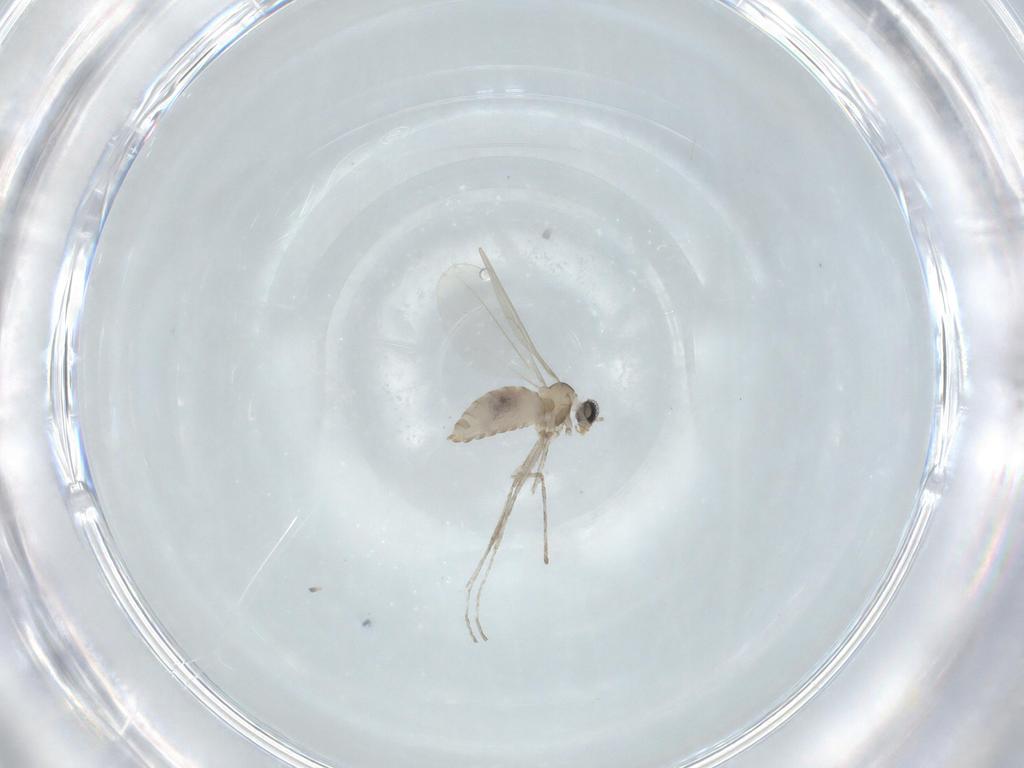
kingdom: Animalia
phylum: Arthropoda
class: Insecta
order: Diptera
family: Cecidomyiidae
